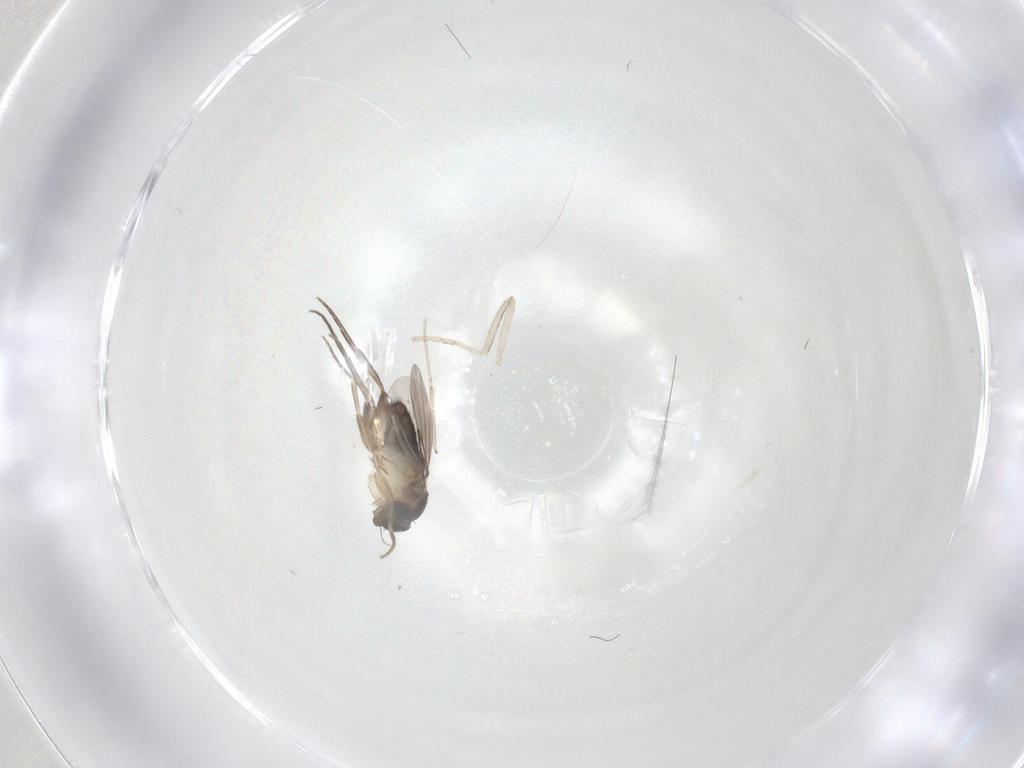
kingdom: Animalia
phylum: Arthropoda
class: Insecta
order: Diptera
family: Phoridae
